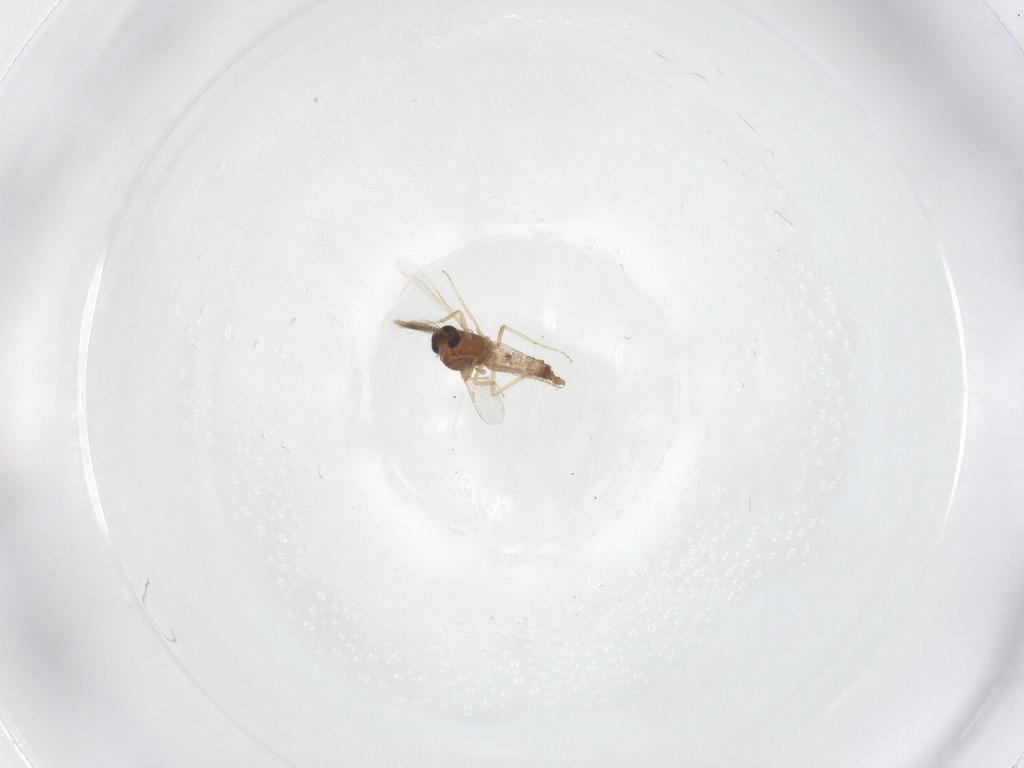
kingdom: Animalia
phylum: Arthropoda
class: Insecta
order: Diptera
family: Ceratopogonidae
